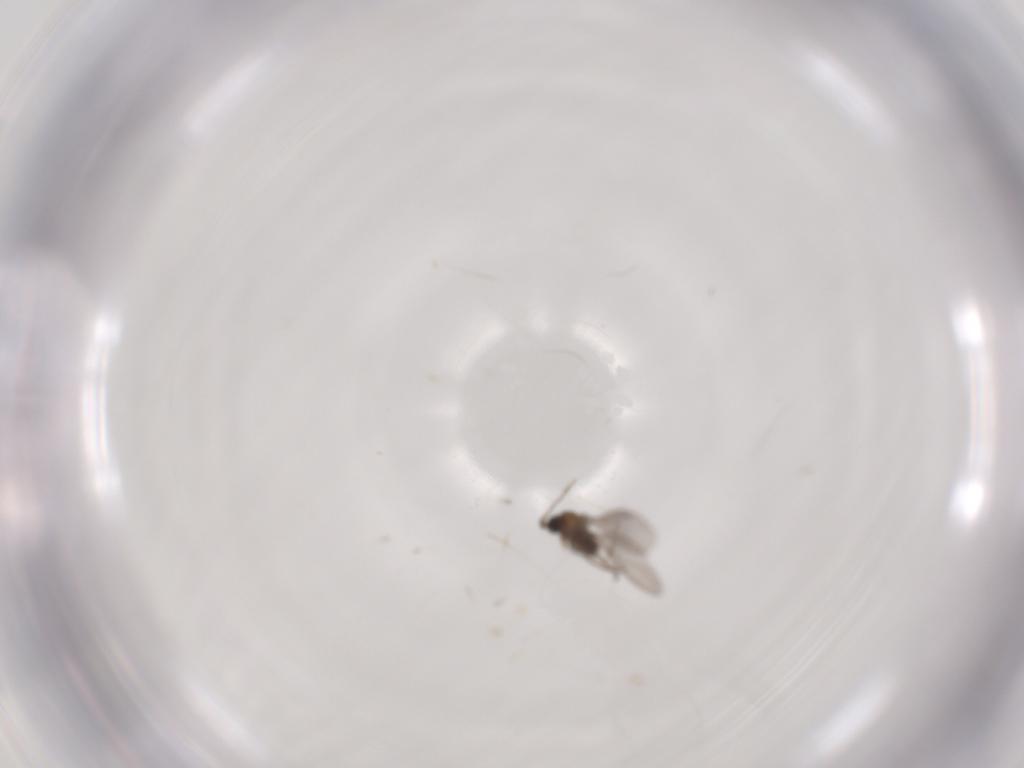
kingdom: Animalia
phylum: Arthropoda
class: Insecta
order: Diptera
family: Sciaridae
